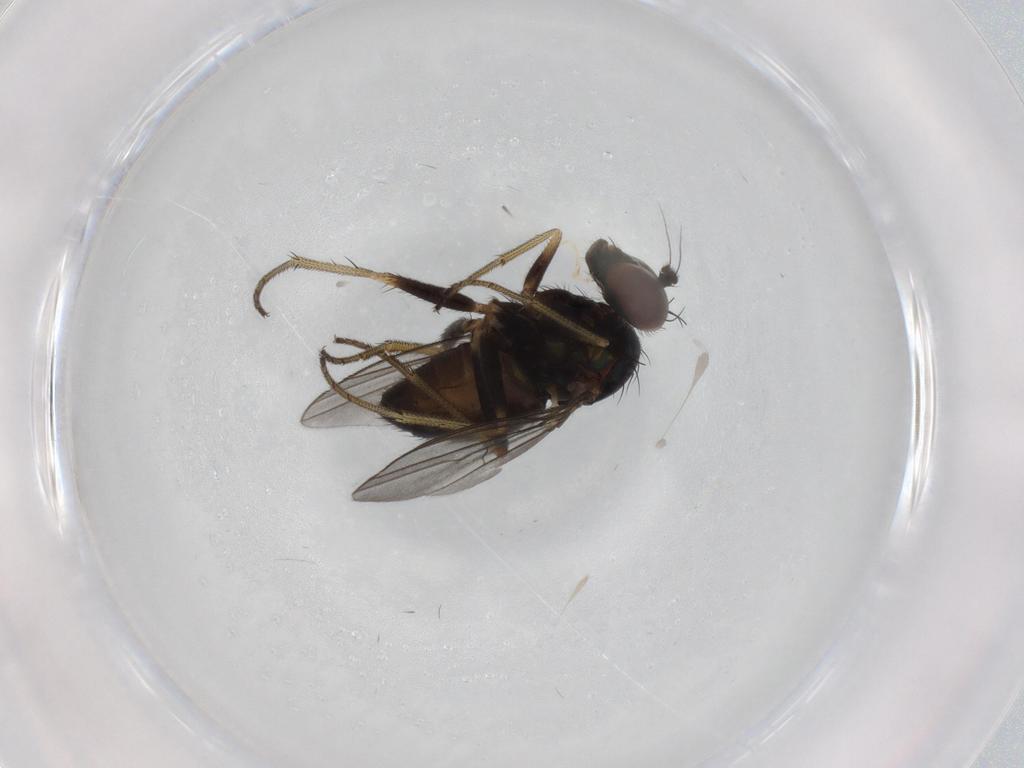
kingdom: Animalia
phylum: Arthropoda
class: Insecta
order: Diptera
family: Dolichopodidae
